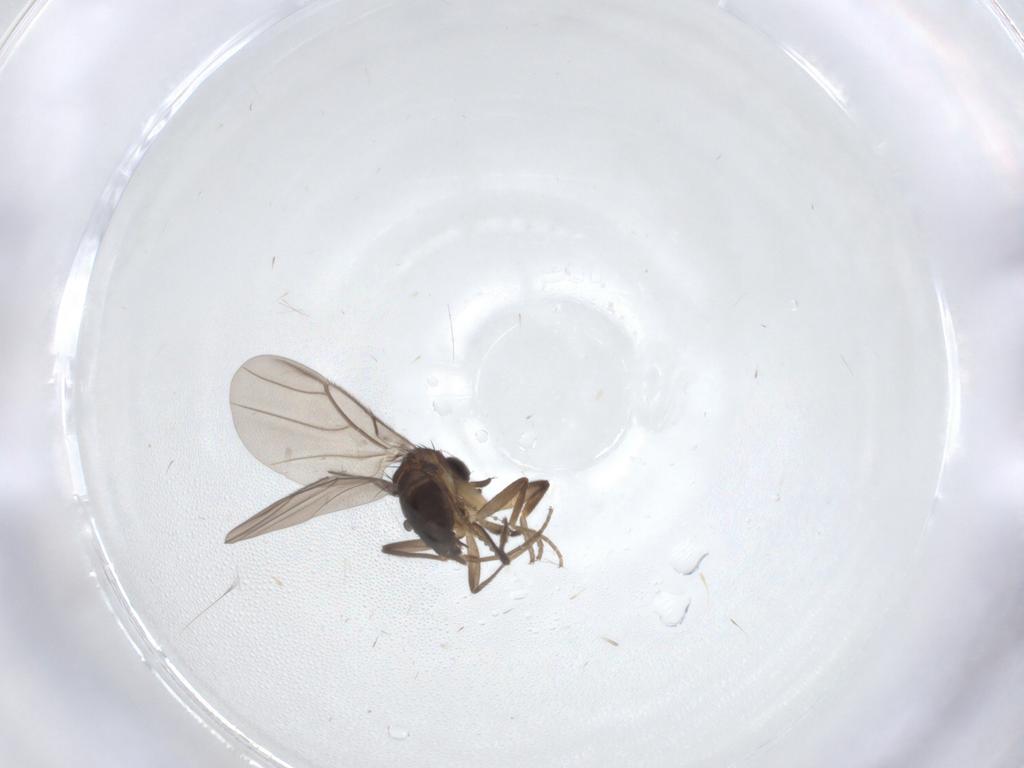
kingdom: Animalia
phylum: Arthropoda
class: Insecta
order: Diptera
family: Phoridae
